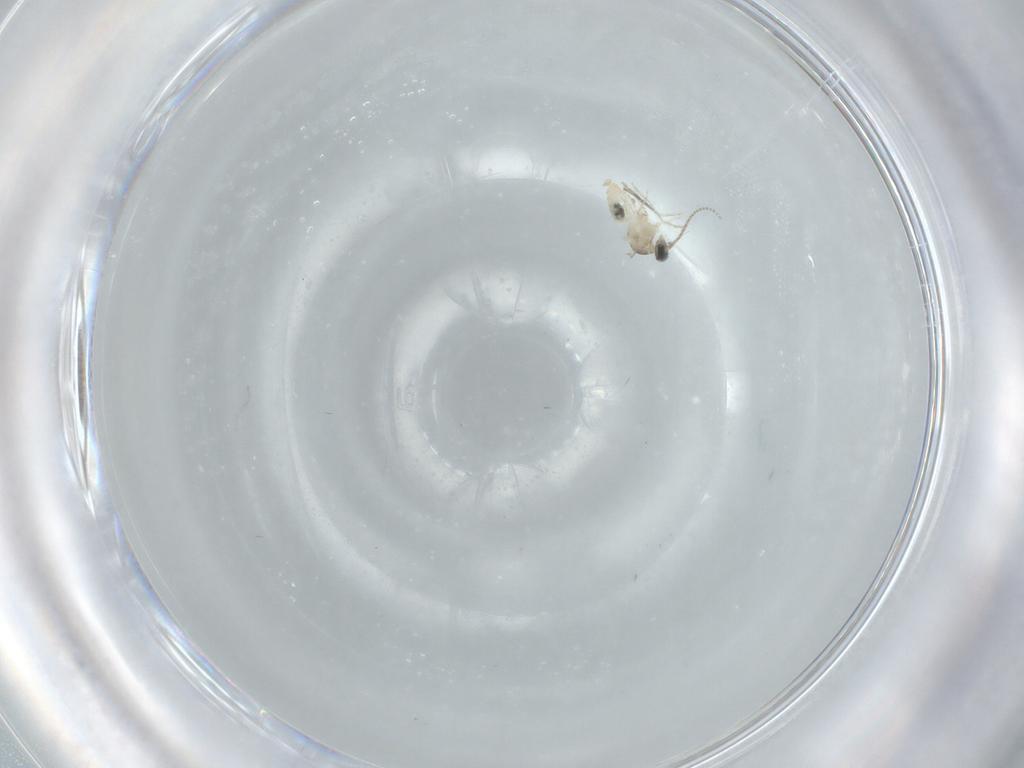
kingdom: Animalia
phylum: Arthropoda
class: Insecta
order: Diptera
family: Cecidomyiidae
